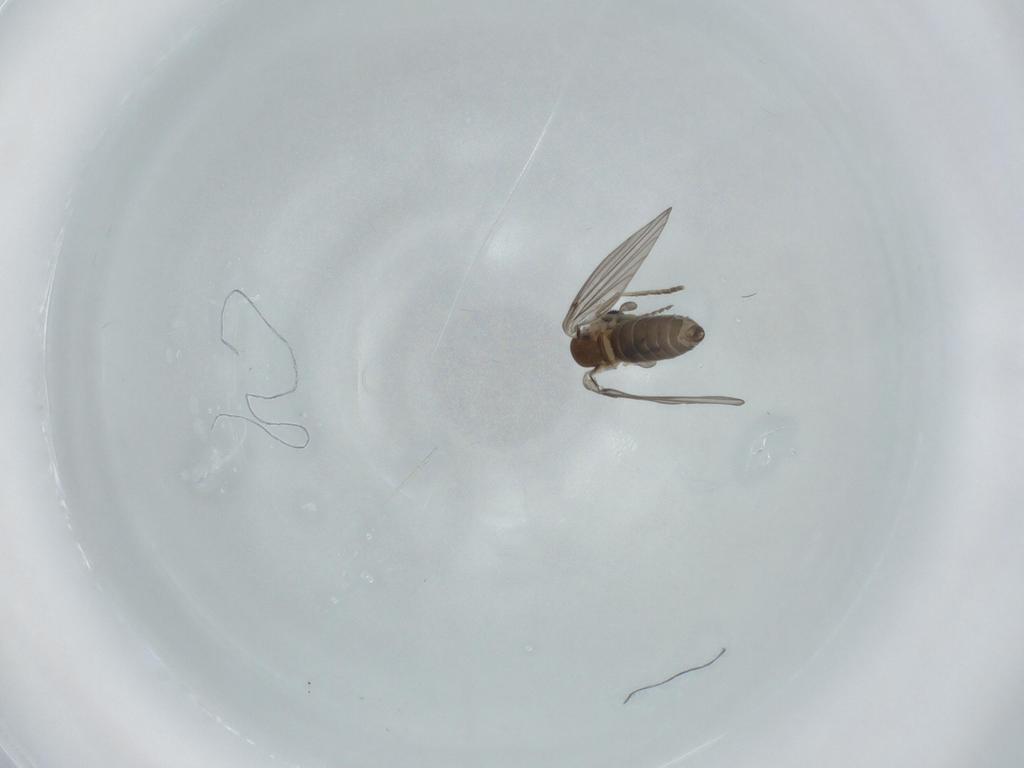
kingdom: Animalia
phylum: Arthropoda
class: Insecta
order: Diptera
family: Psychodidae
